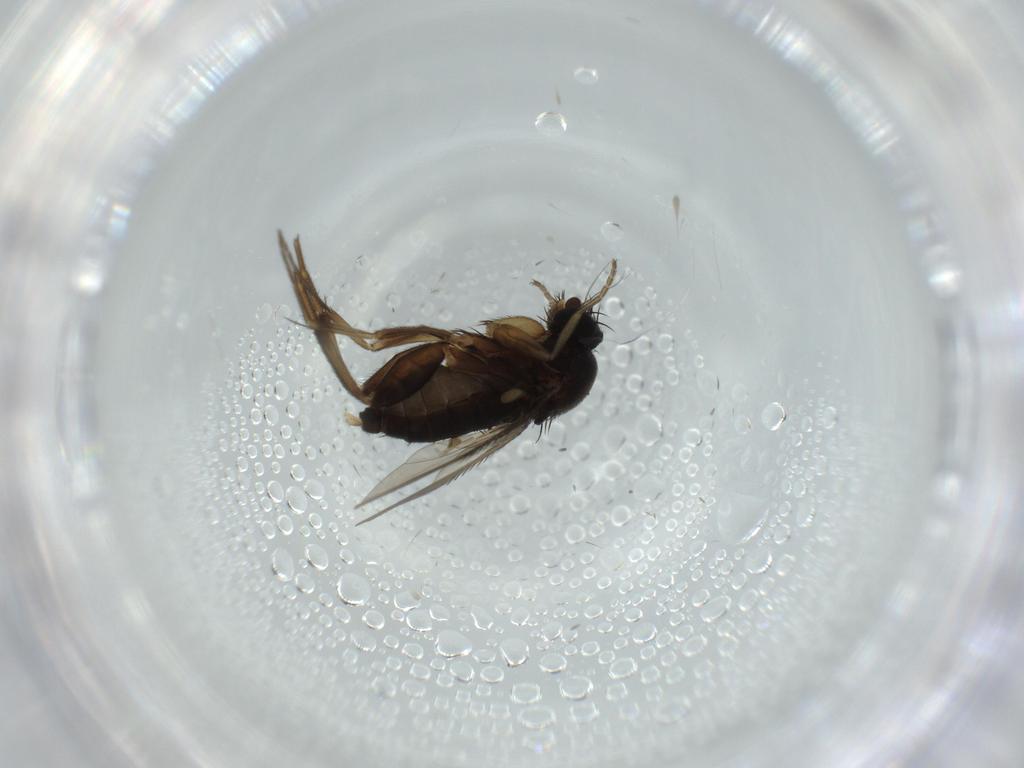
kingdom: Animalia
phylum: Arthropoda
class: Insecta
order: Diptera
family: Phoridae
